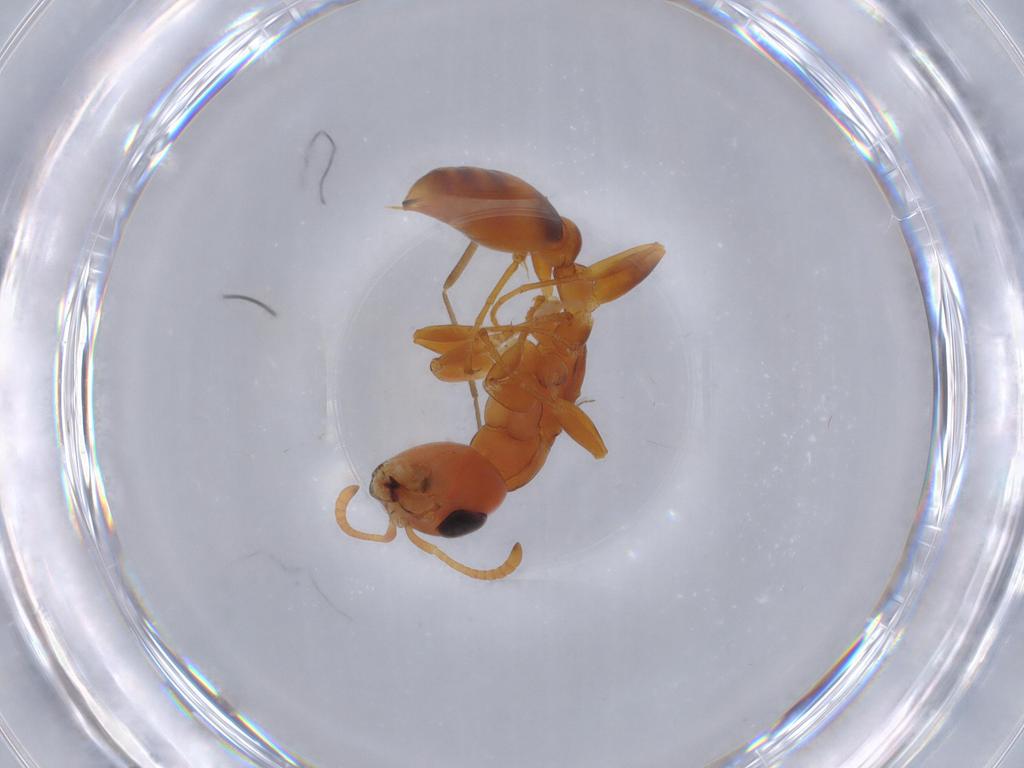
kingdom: Animalia
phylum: Arthropoda
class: Insecta
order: Hymenoptera
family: Formicidae
